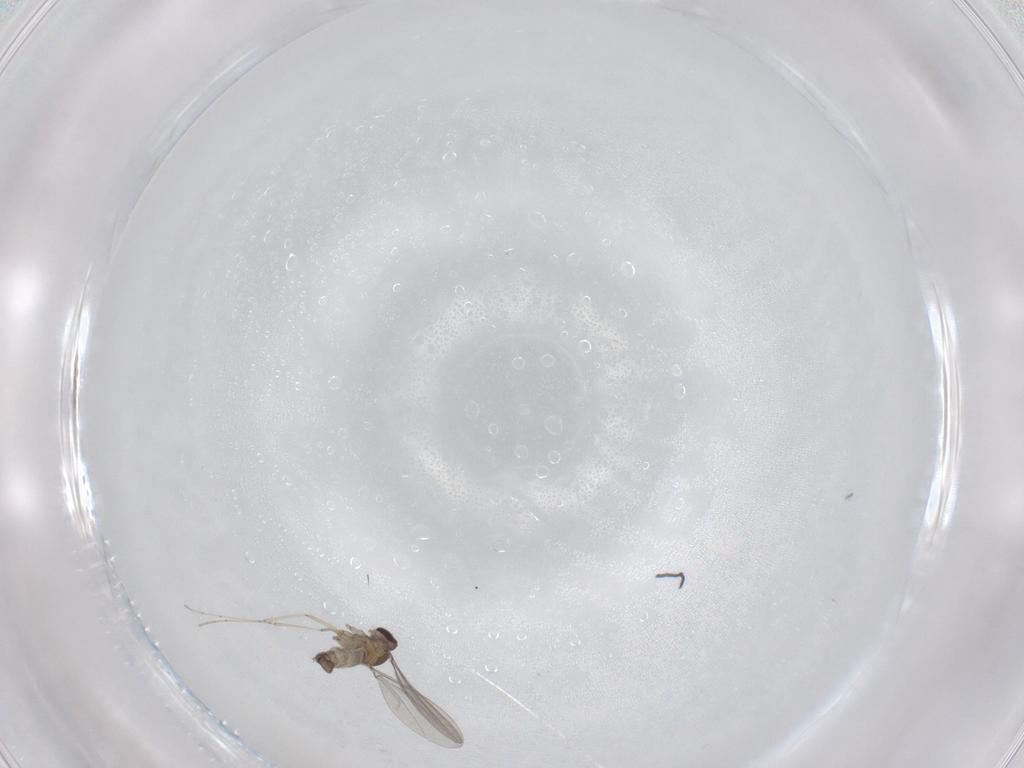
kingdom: Animalia
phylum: Arthropoda
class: Insecta
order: Diptera
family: Cecidomyiidae
